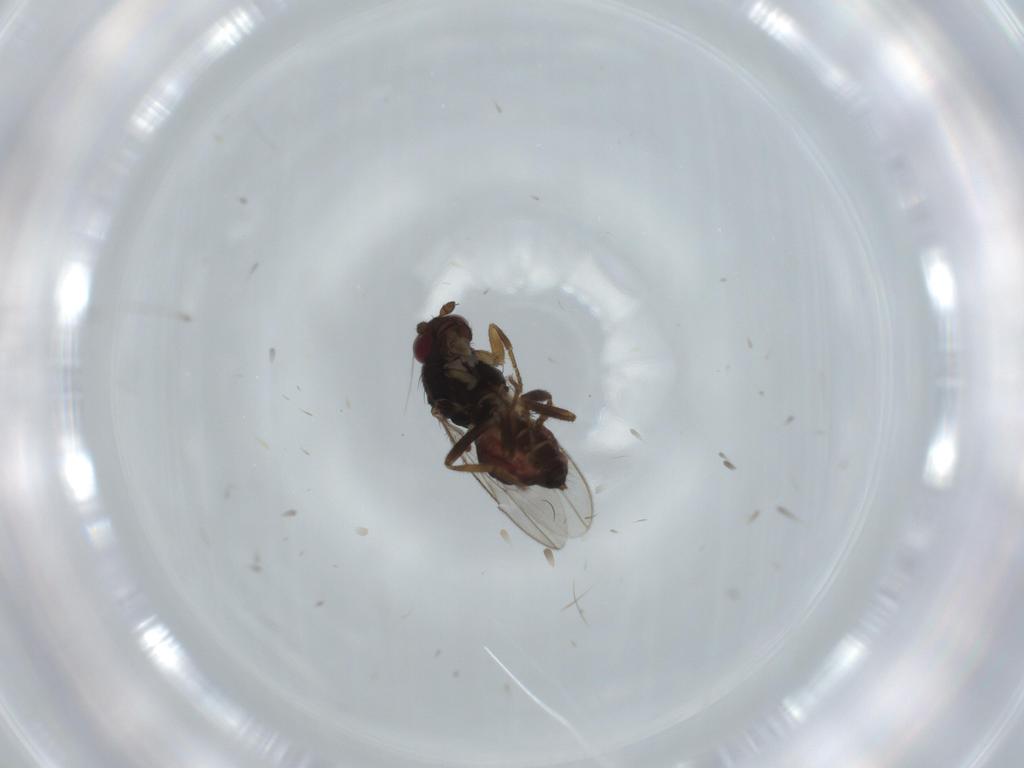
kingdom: Animalia
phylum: Arthropoda
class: Insecta
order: Diptera
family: Sphaeroceridae
